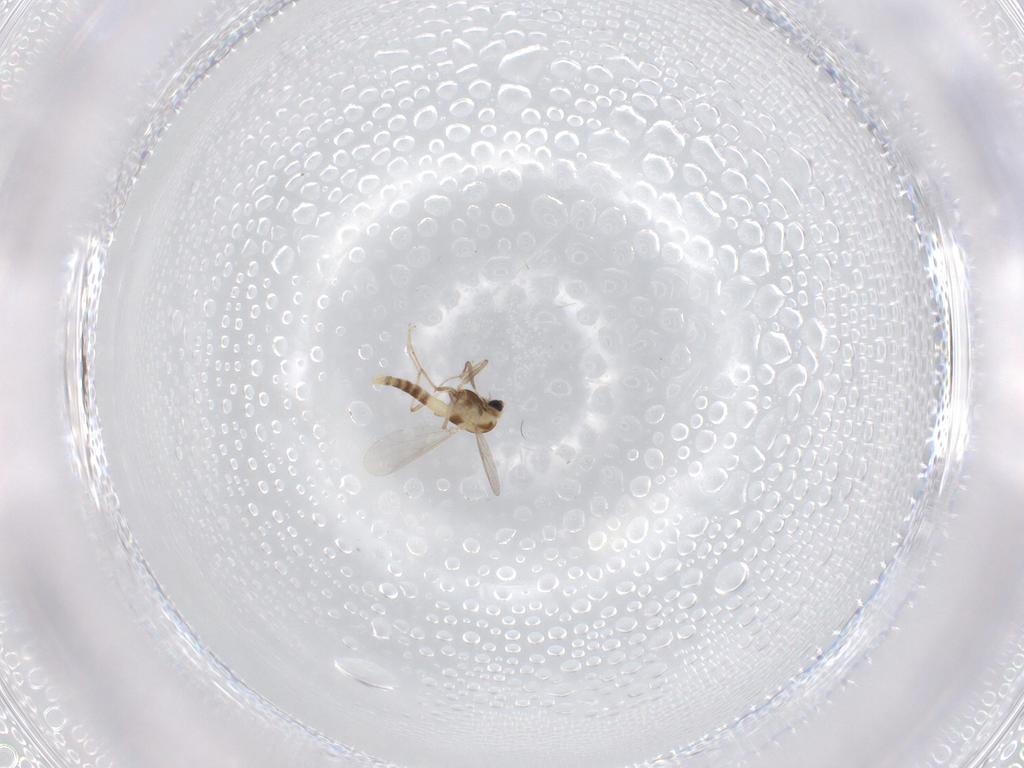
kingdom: Animalia
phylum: Arthropoda
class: Insecta
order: Diptera
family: Chironomidae
